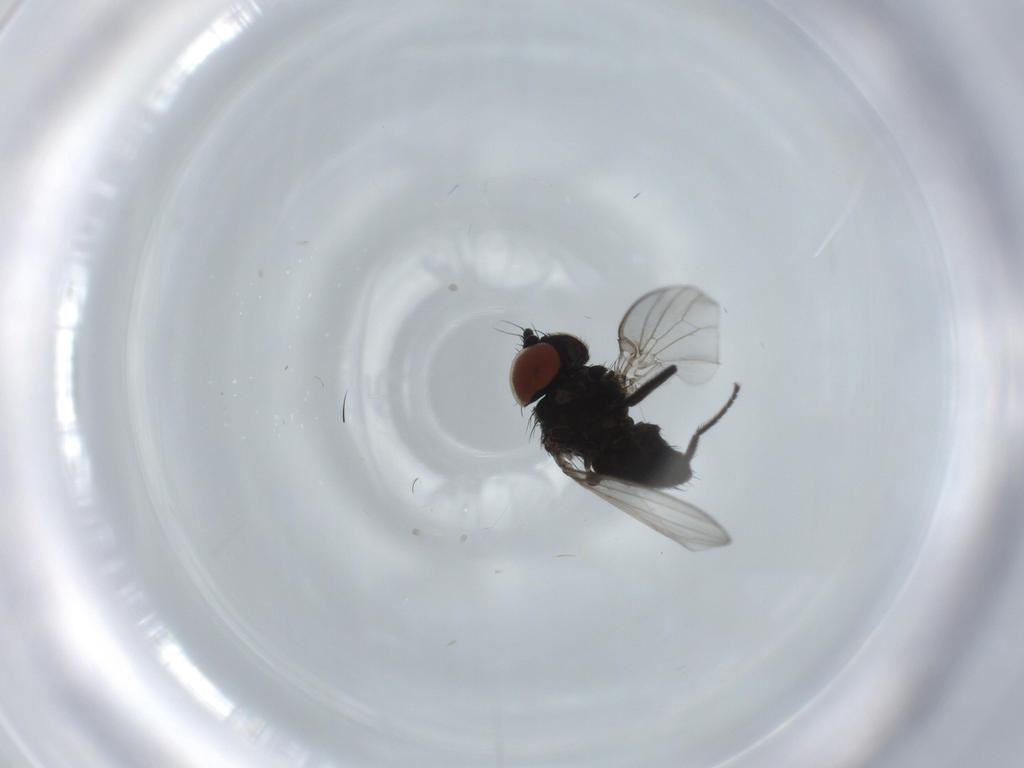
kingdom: Animalia
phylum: Arthropoda
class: Insecta
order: Diptera
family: Milichiidae
